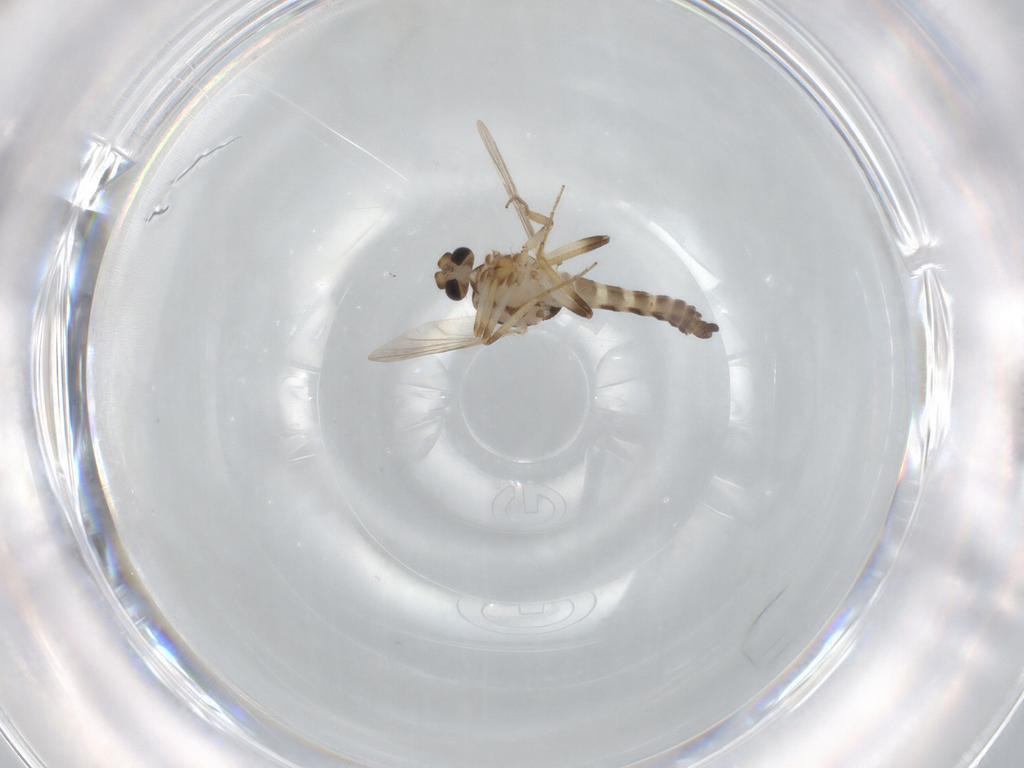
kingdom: Animalia
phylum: Arthropoda
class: Insecta
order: Diptera
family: Ceratopogonidae
